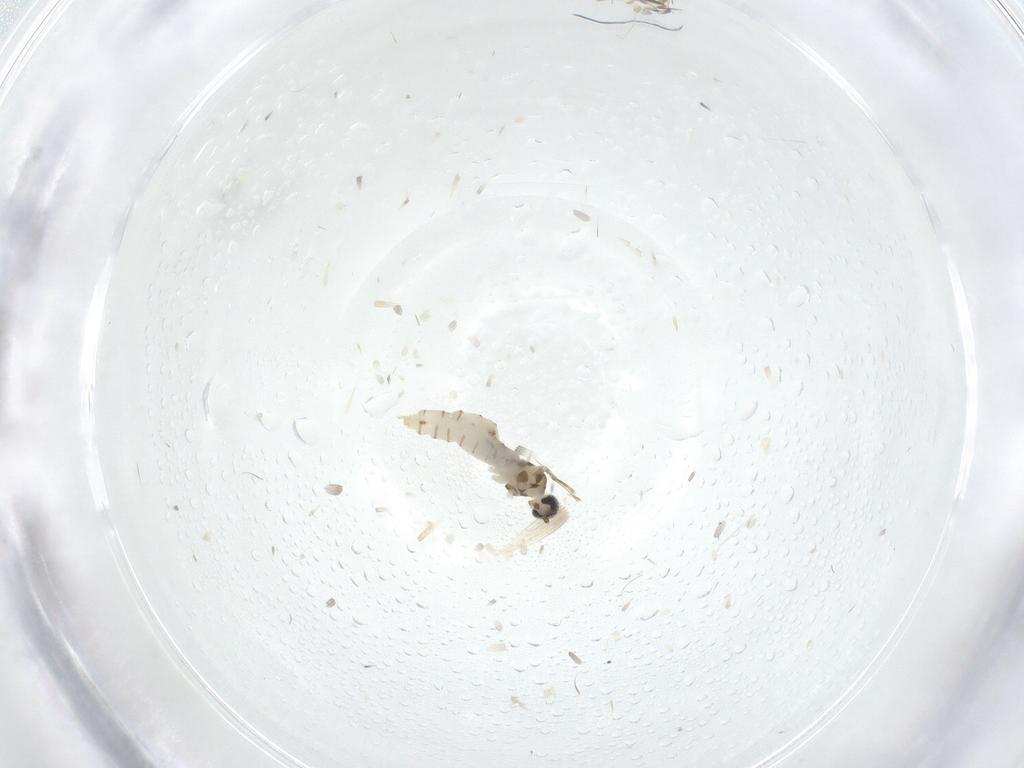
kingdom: Animalia
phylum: Arthropoda
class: Insecta
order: Diptera
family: Cecidomyiidae
